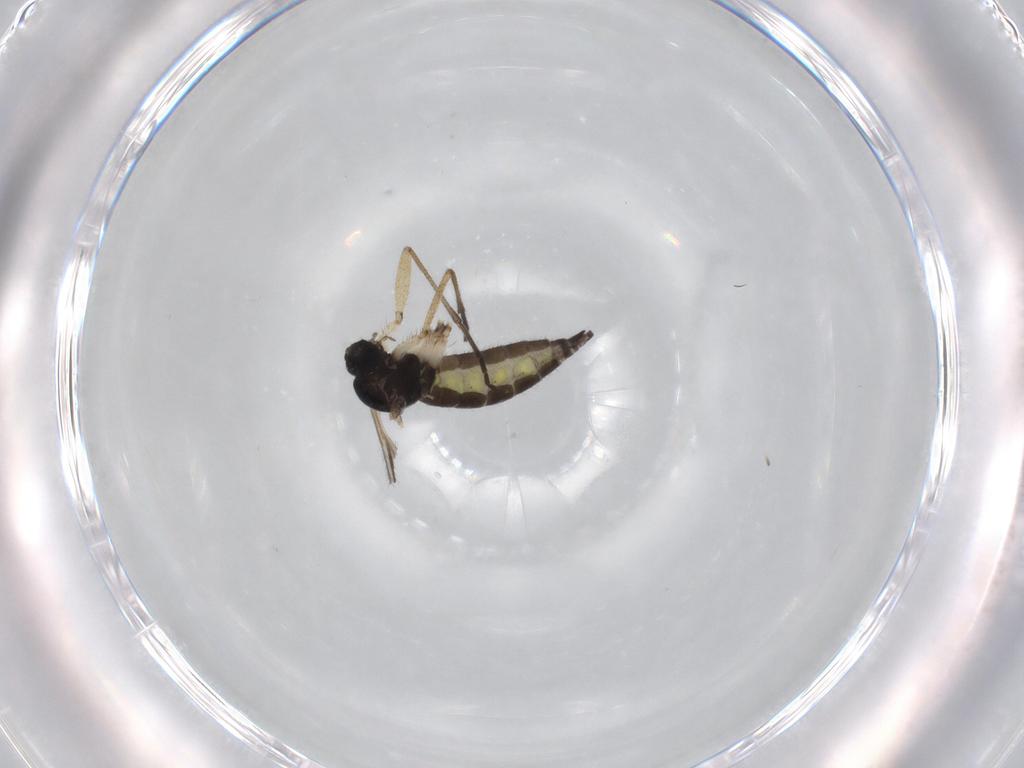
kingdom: Animalia
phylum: Arthropoda
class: Insecta
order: Diptera
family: Sciaridae
